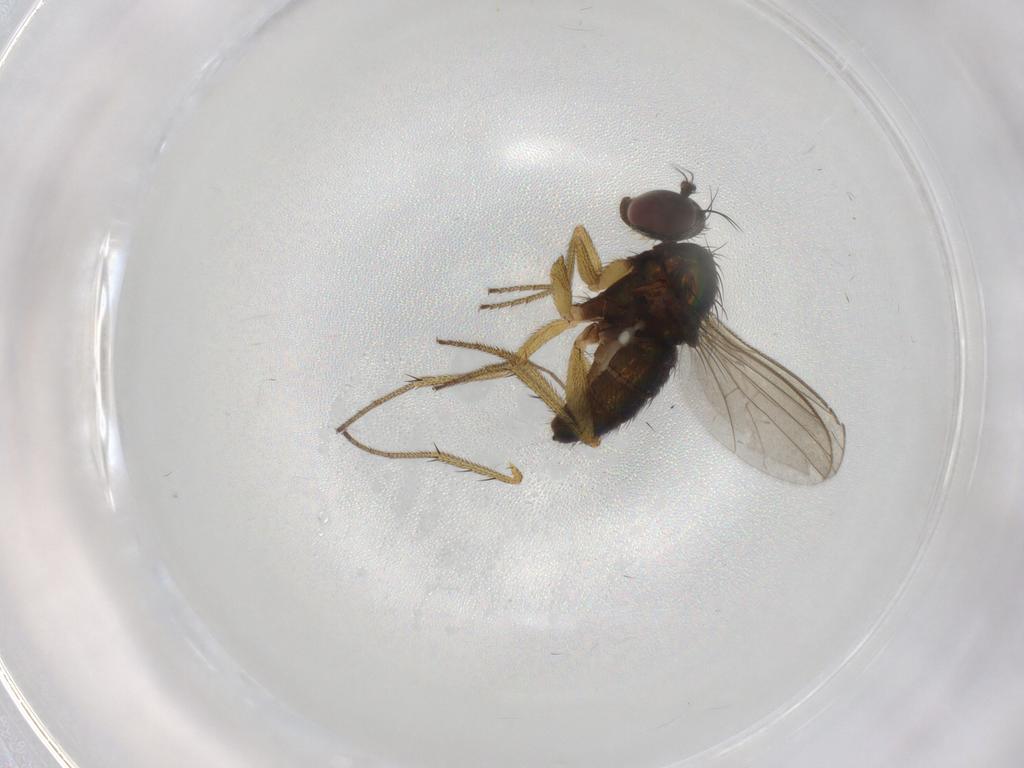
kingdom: Animalia
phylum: Arthropoda
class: Insecta
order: Diptera
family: Dolichopodidae
